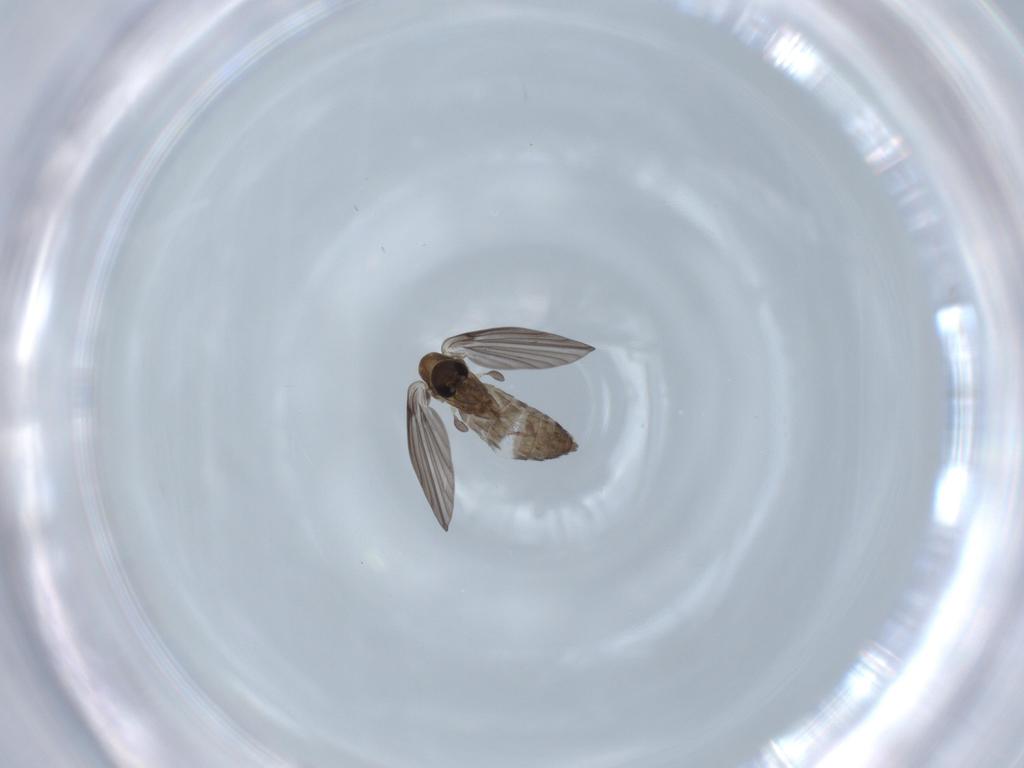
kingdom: Animalia
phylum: Arthropoda
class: Insecta
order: Diptera
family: Psychodidae
